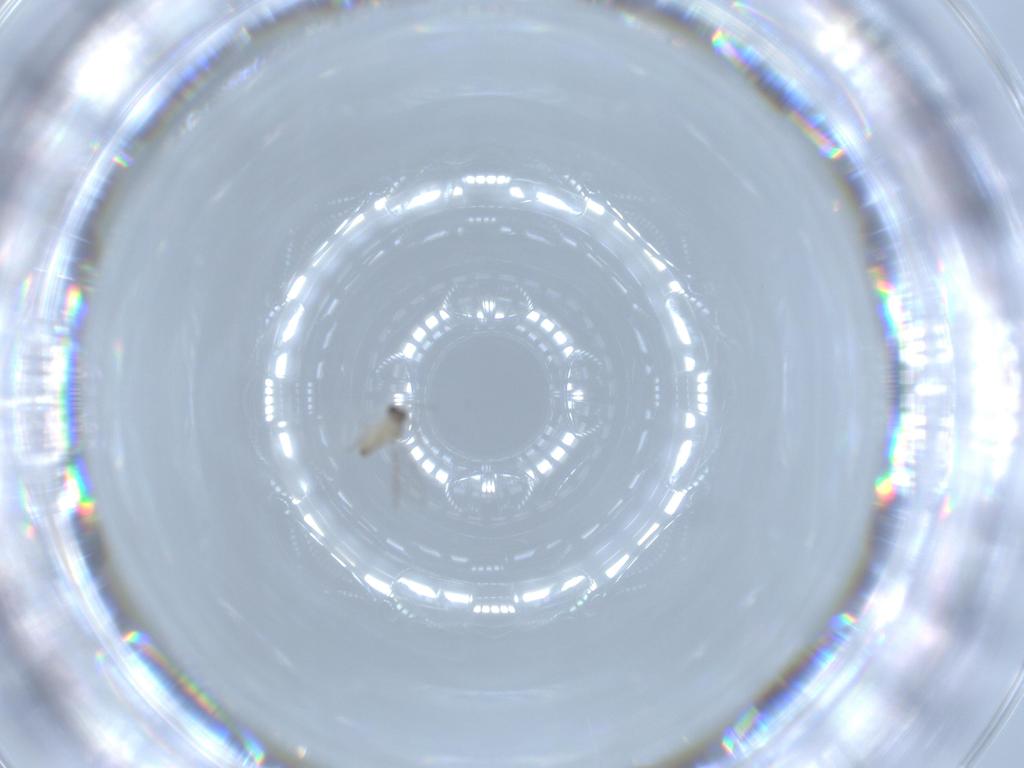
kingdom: Animalia
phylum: Arthropoda
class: Insecta
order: Diptera
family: Cecidomyiidae
